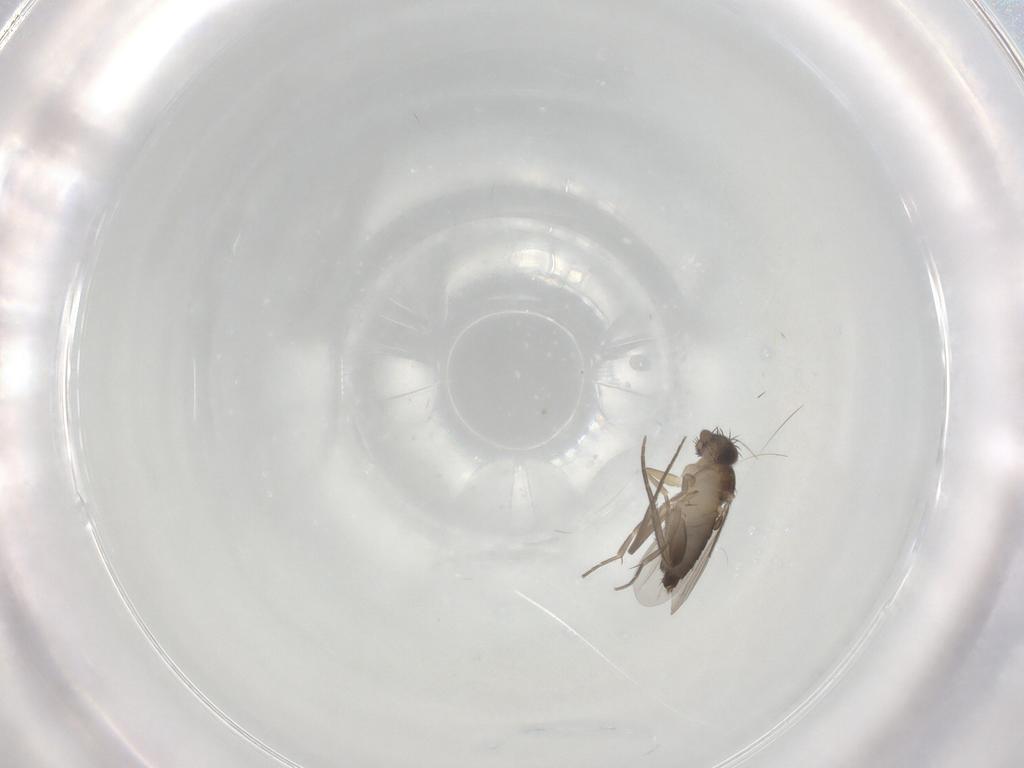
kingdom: Animalia
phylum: Arthropoda
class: Insecta
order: Diptera
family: Phoridae
